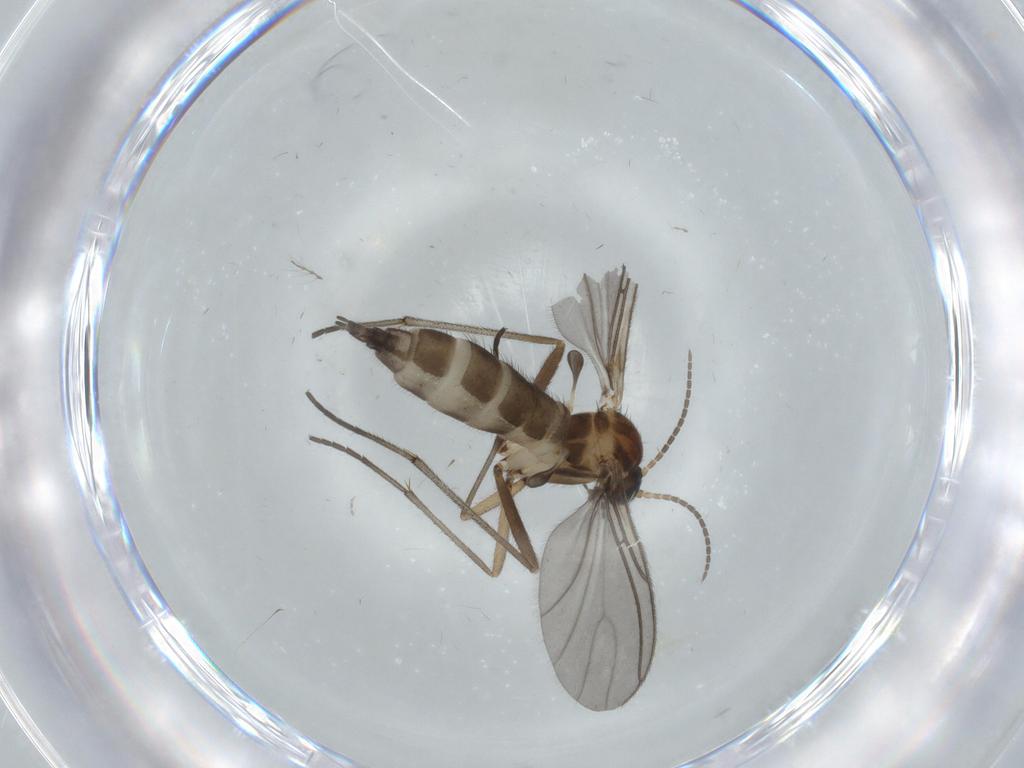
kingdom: Animalia
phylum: Arthropoda
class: Insecta
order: Diptera
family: Sciaridae
